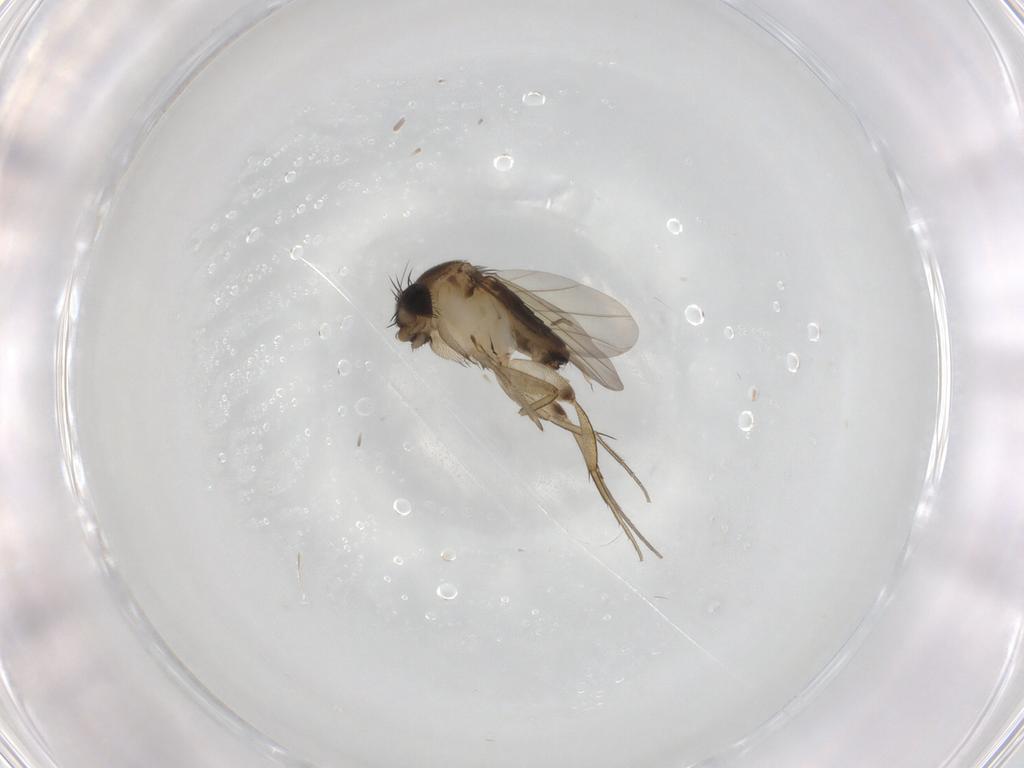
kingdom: Animalia
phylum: Arthropoda
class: Insecta
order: Diptera
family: Phoridae
